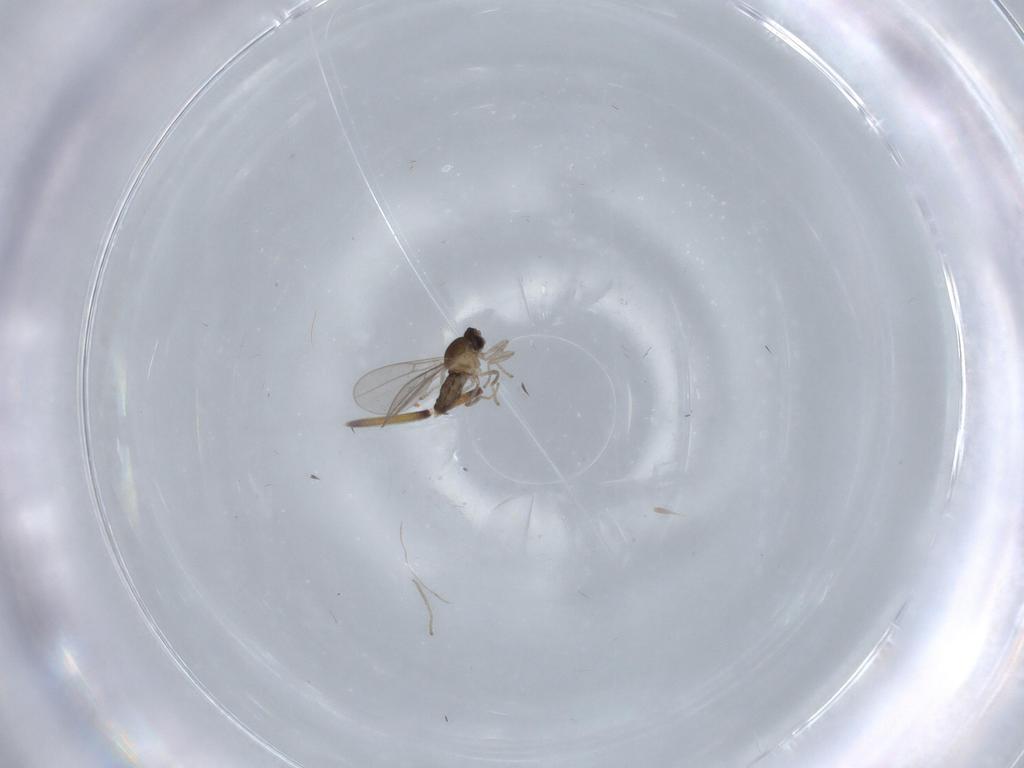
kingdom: Animalia
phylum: Arthropoda
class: Insecta
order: Diptera
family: Cecidomyiidae
